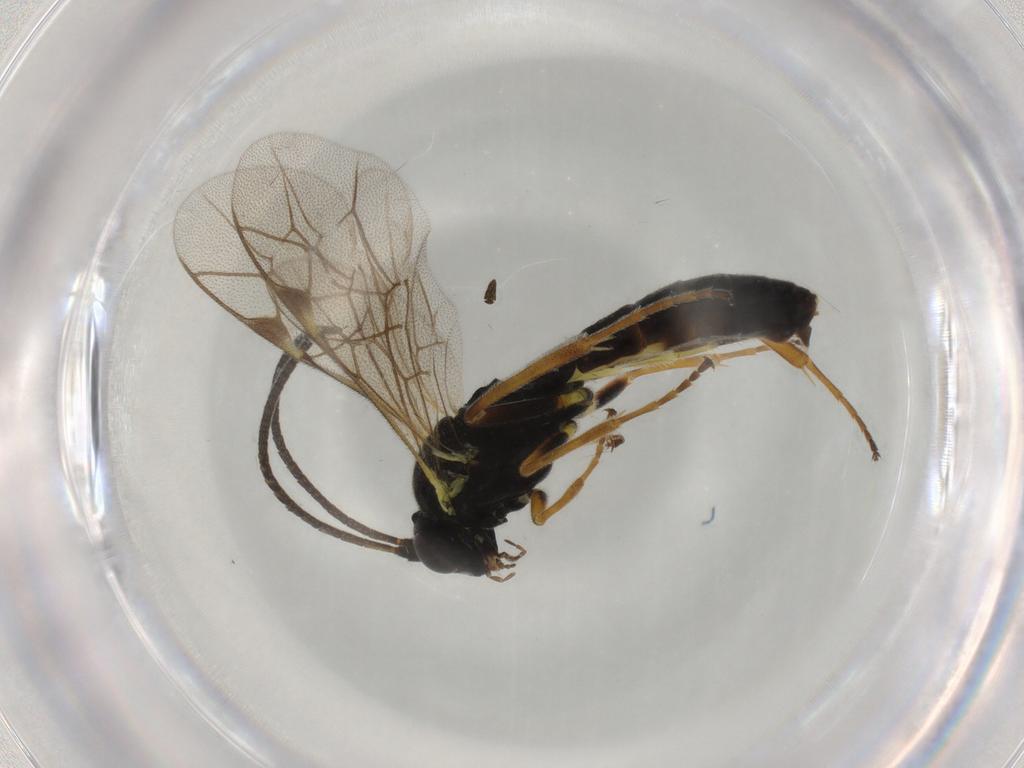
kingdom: Animalia
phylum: Arthropoda
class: Insecta
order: Hymenoptera
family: Ichneumonidae
